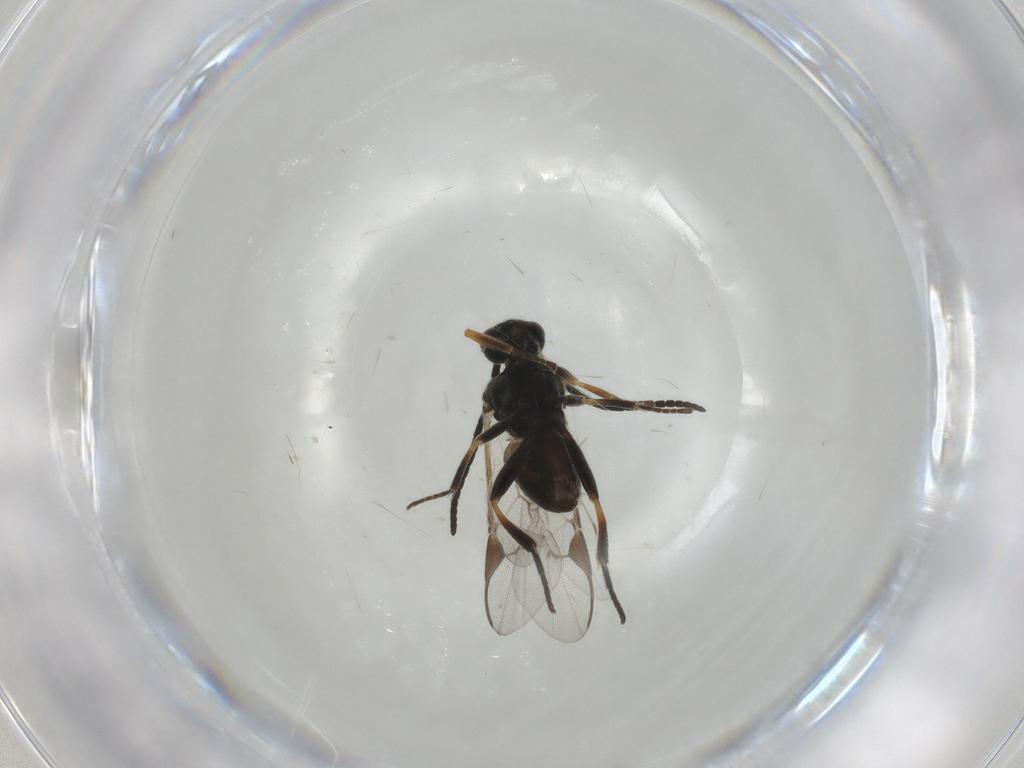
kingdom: Animalia
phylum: Arthropoda
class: Insecta
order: Hymenoptera
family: Braconidae
